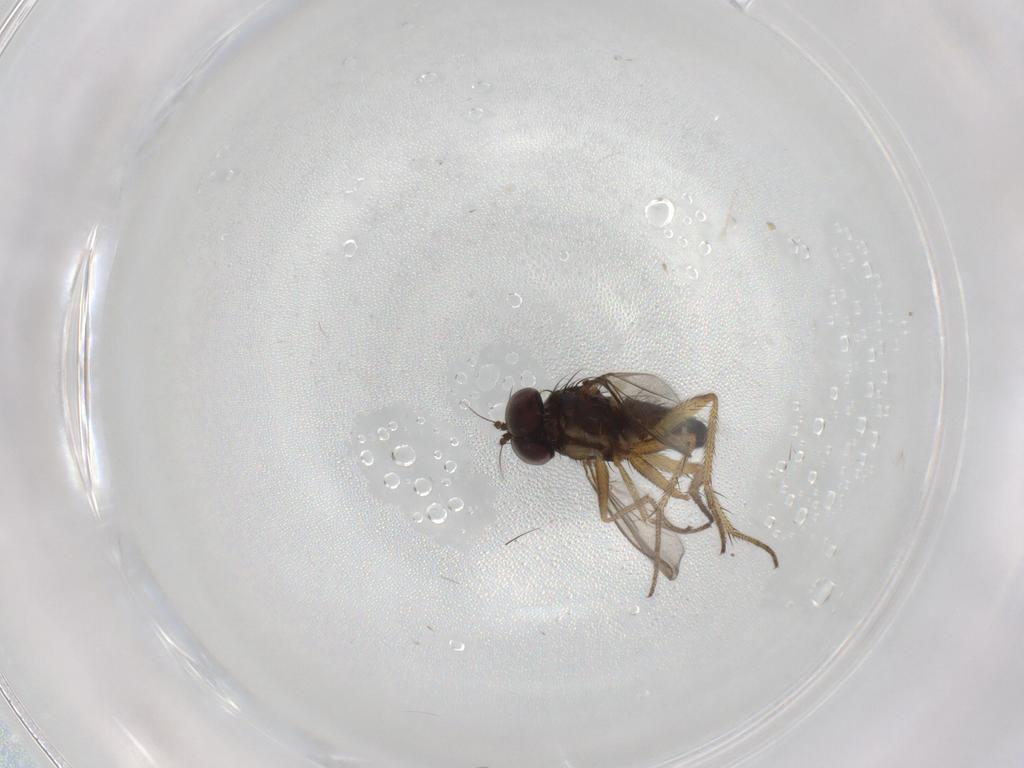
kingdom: Animalia
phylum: Arthropoda
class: Insecta
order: Diptera
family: Dolichopodidae
